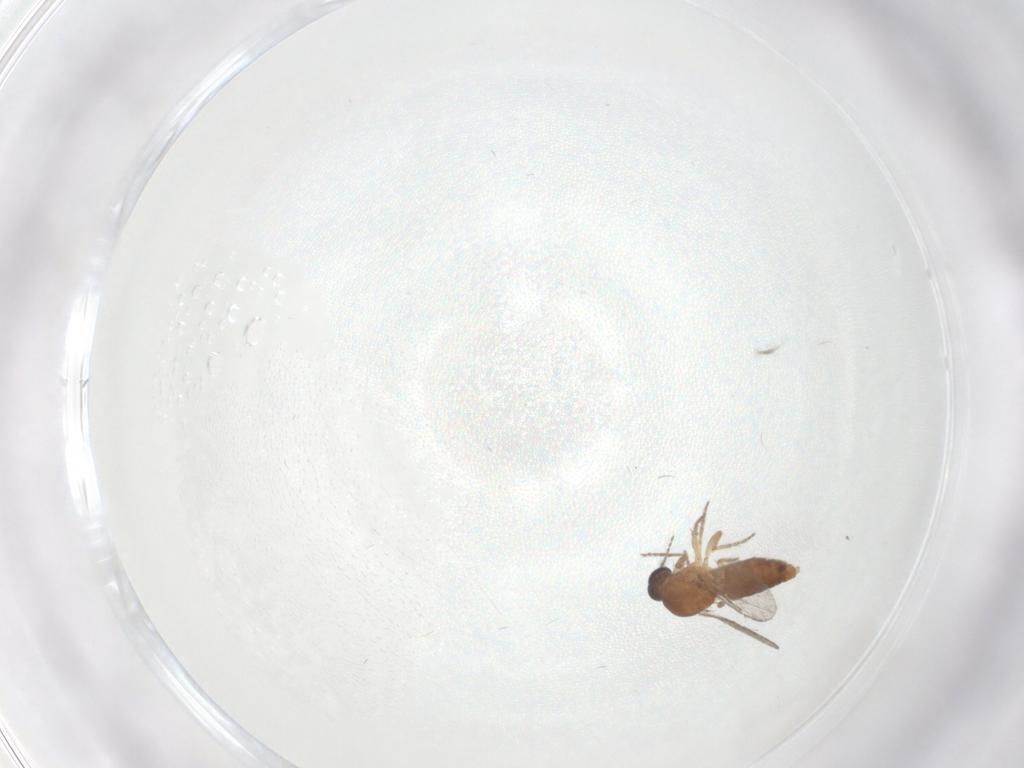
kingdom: Animalia
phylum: Arthropoda
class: Insecta
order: Diptera
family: Ceratopogonidae
